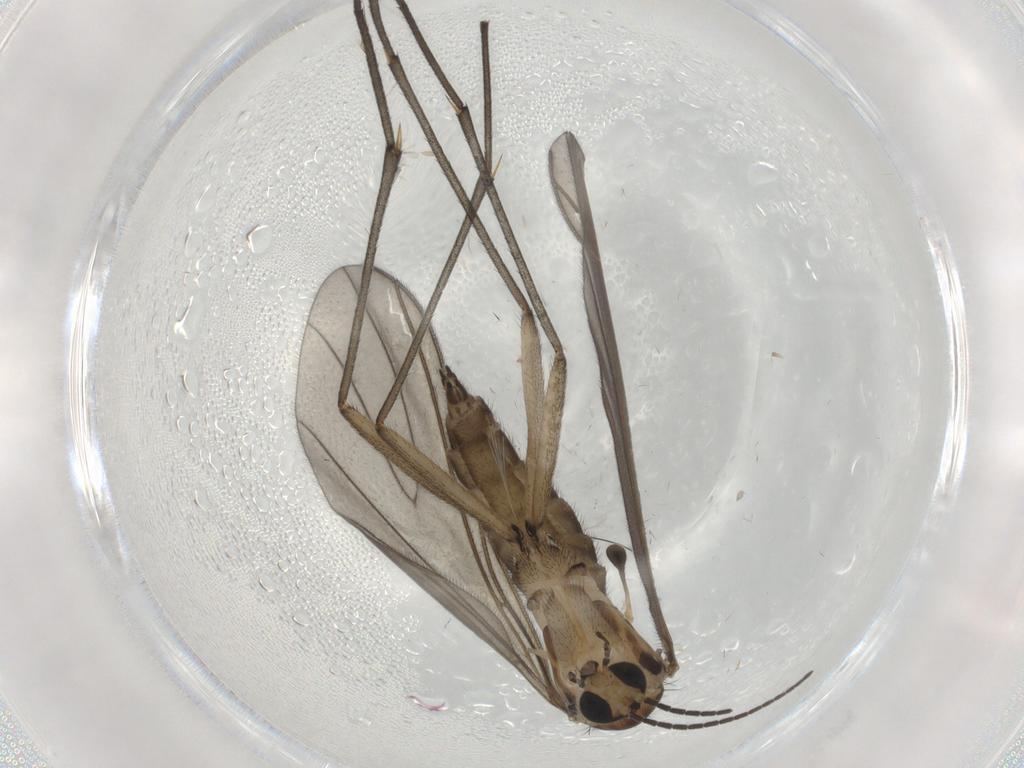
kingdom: Animalia
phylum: Arthropoda
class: Insecta
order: Diptera
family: Sciaridae
